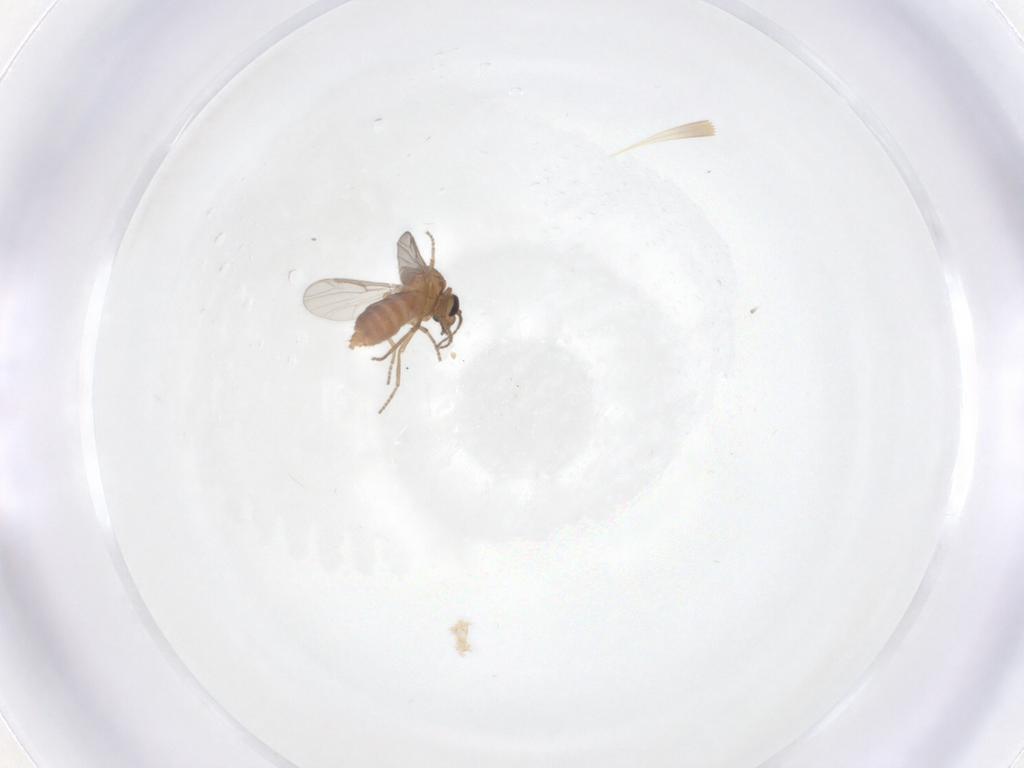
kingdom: Animalia
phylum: Arthropoda
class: Insecta
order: Diptera
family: Ceratopogonidae
